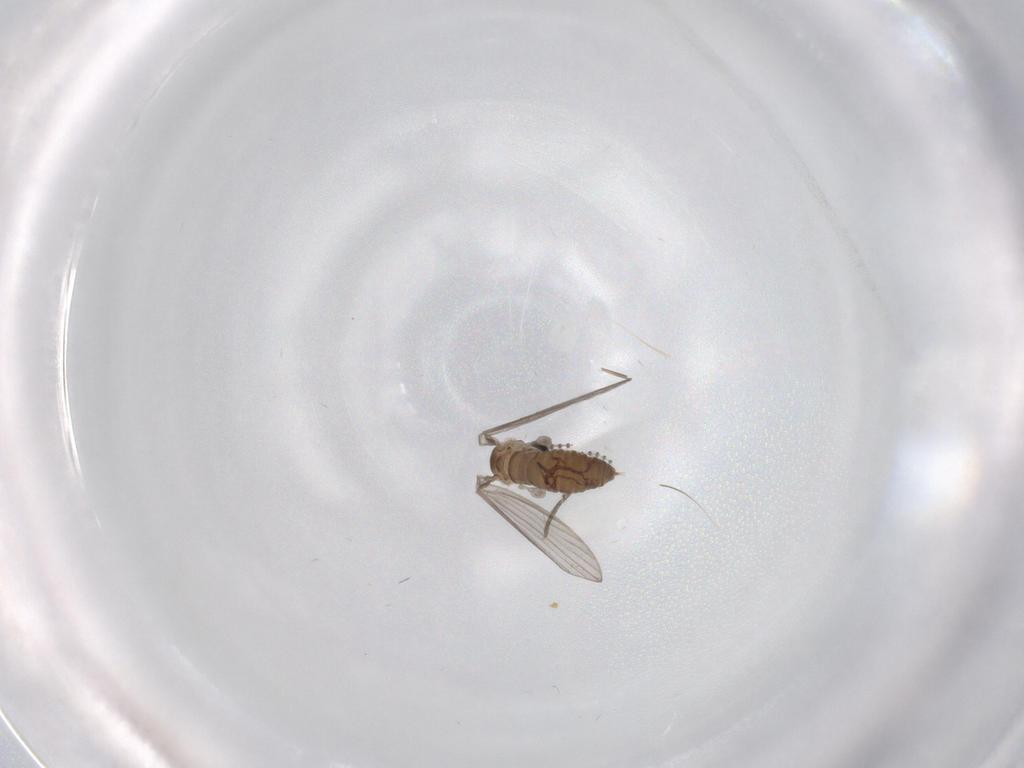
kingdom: Animalia
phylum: Arthropoda
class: Insecta
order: Diptera
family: Psychodidae
